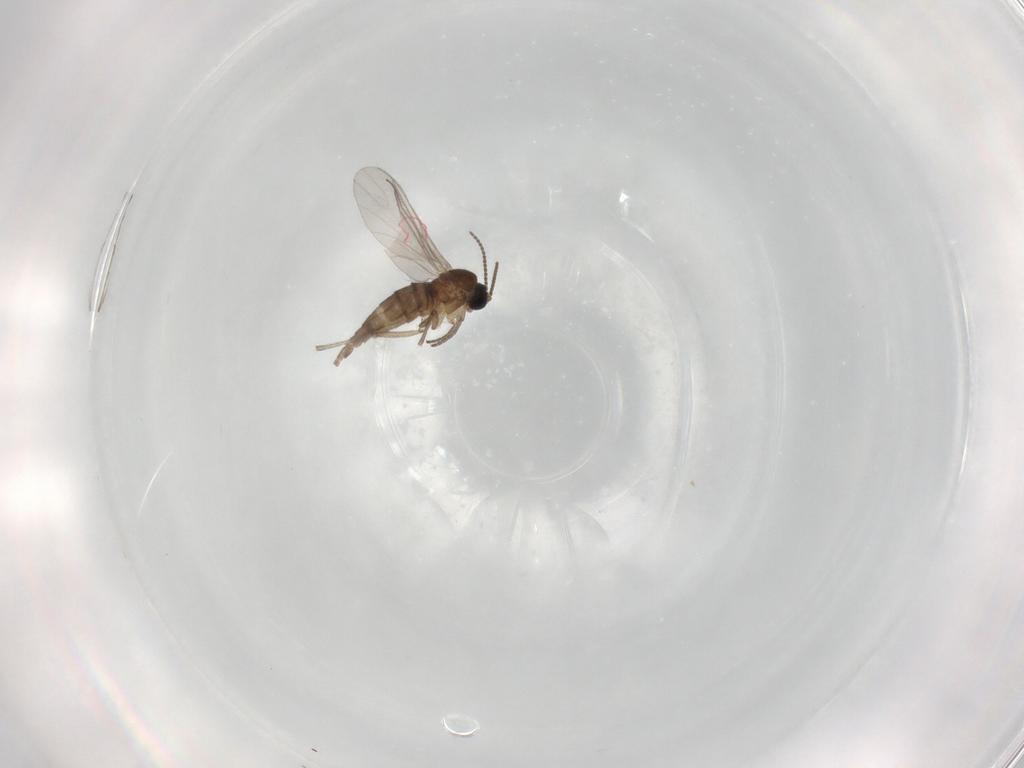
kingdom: Animalia
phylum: Arthropoda
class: Insecta
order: Diptera
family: Sciaridae
